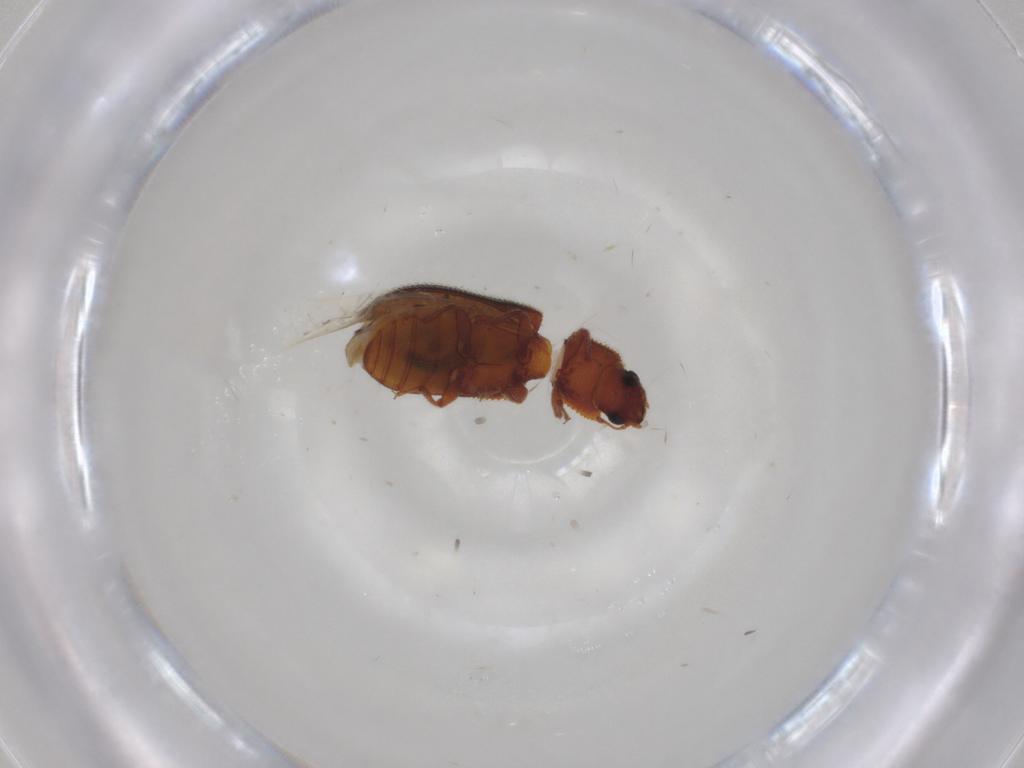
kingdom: Animalia
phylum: Arthropoda
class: Insecta
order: Coleoptera
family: Zopheridae
